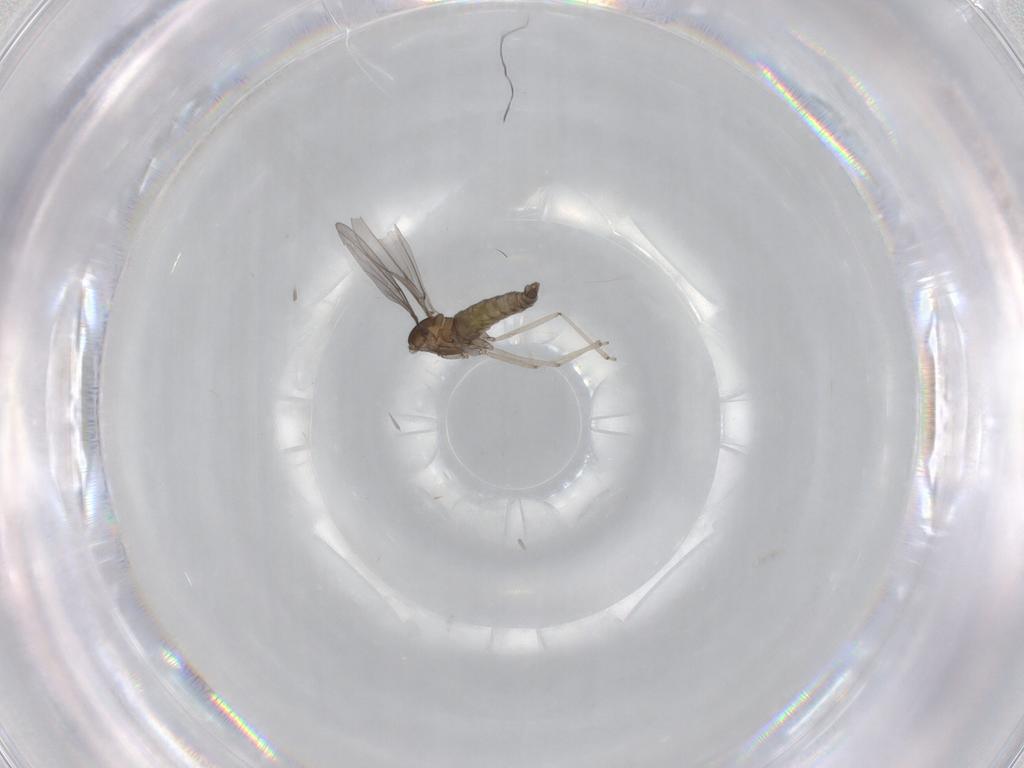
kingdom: Animalia
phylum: Arthropoda
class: Insecta
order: Diptera
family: Cecidomyiidae
